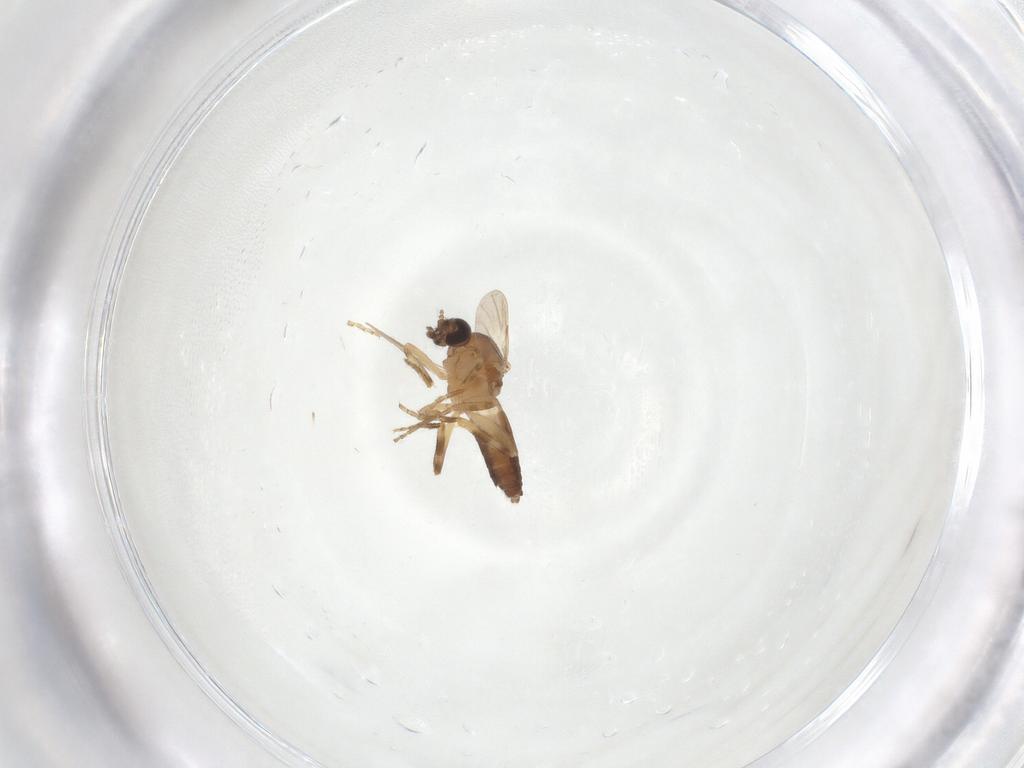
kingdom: Animalia
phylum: Arthropoda
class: Insecta
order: Diptera
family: Ceratopogonidae
